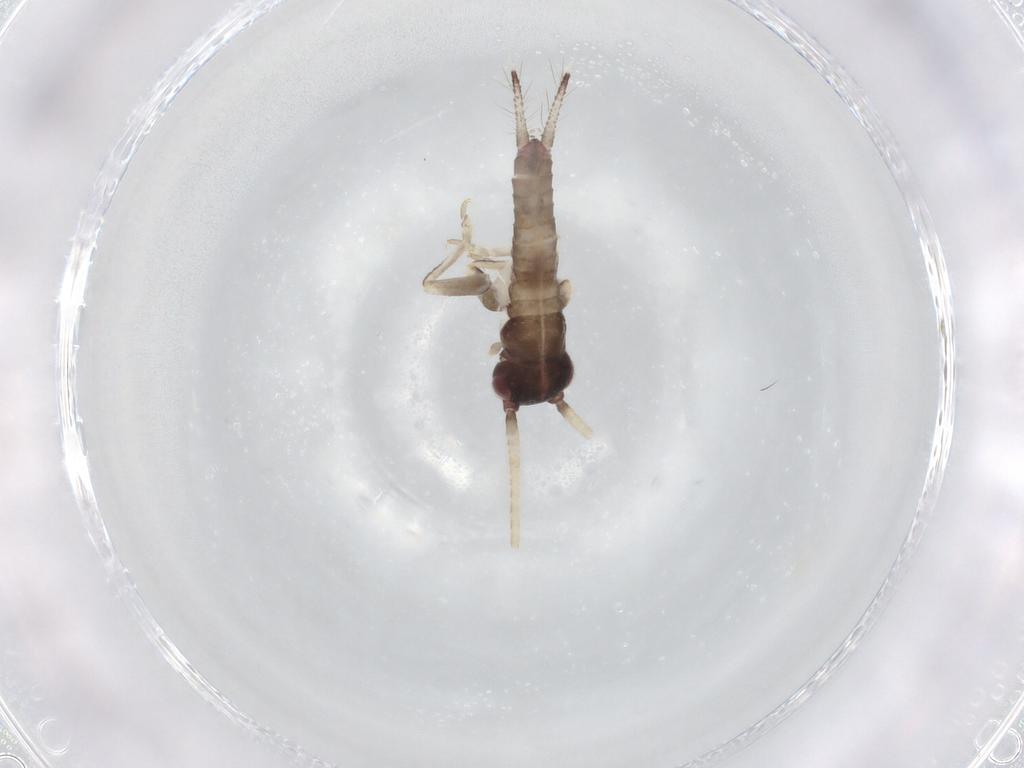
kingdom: Animalia
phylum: Arthropoda
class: Insecta
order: Orthoptera
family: Gryllidae
